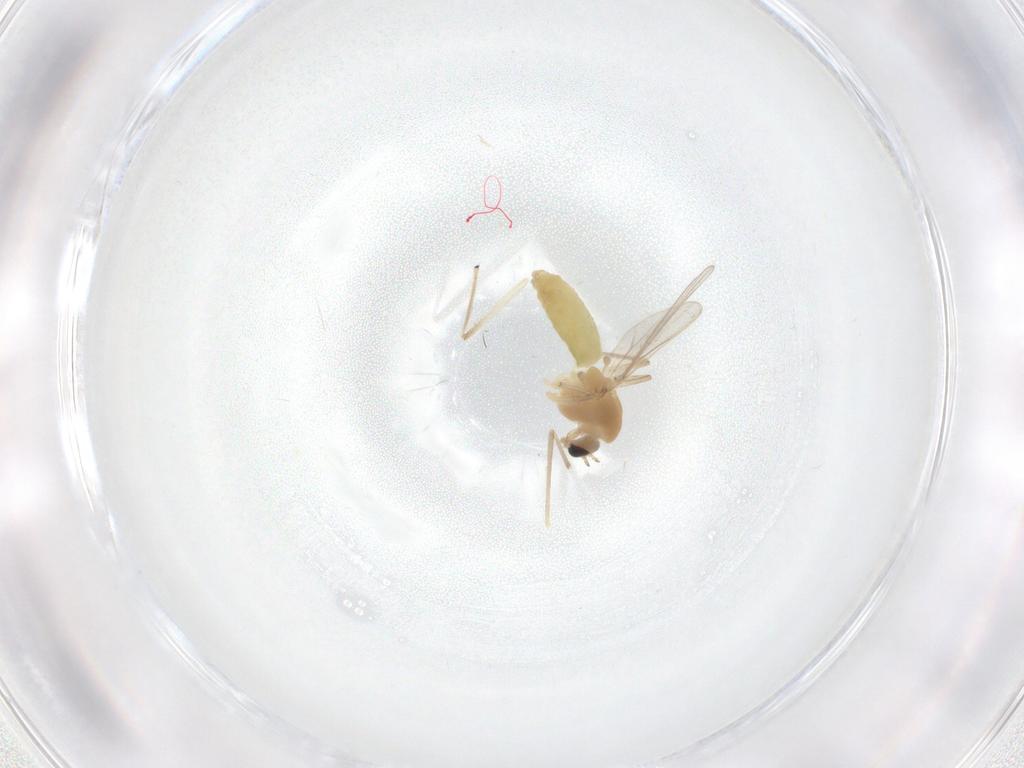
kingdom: Animalia
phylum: Arthropoda
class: Insecta
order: Diptera
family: Chironomidae
